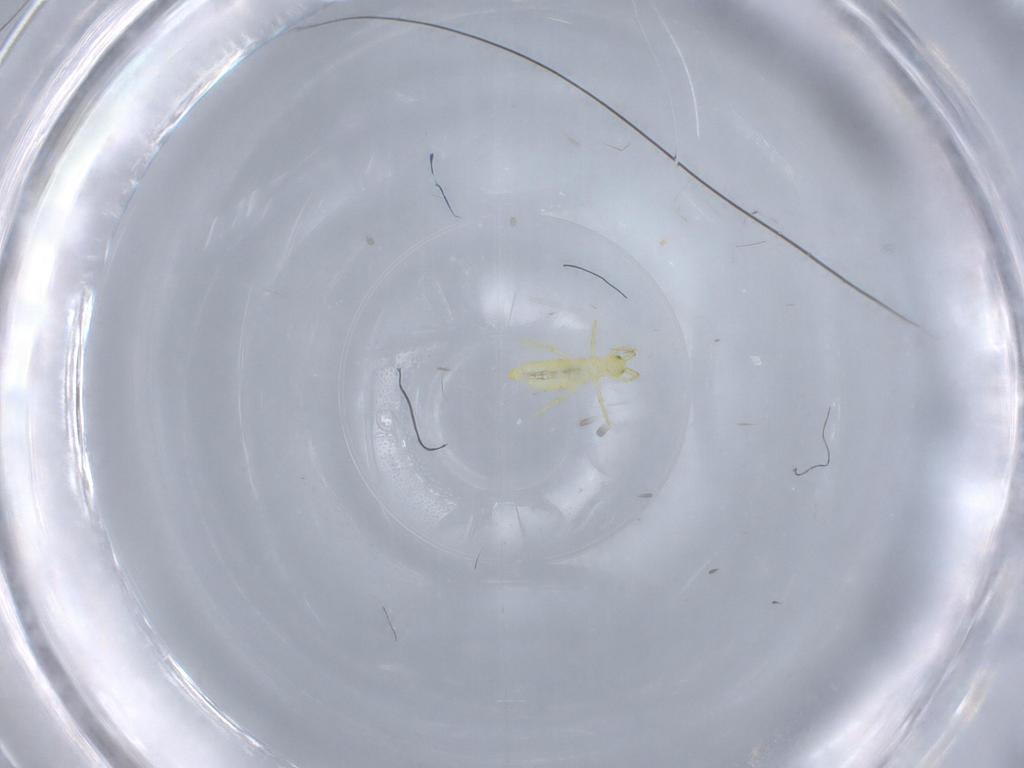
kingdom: Animalia
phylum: Arthropoda
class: Collembola
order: Entomobryomorpha
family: Paronellidae
